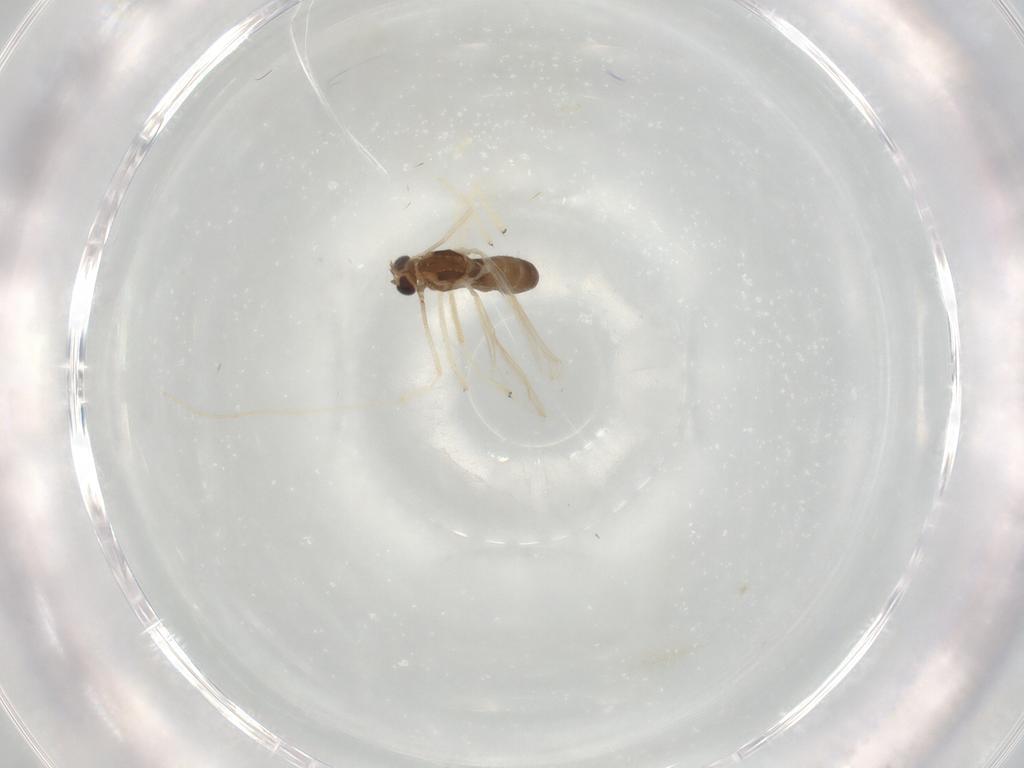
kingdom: Animalia
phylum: Arthropoda
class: Insecta
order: Diptera
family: Chironomidae
